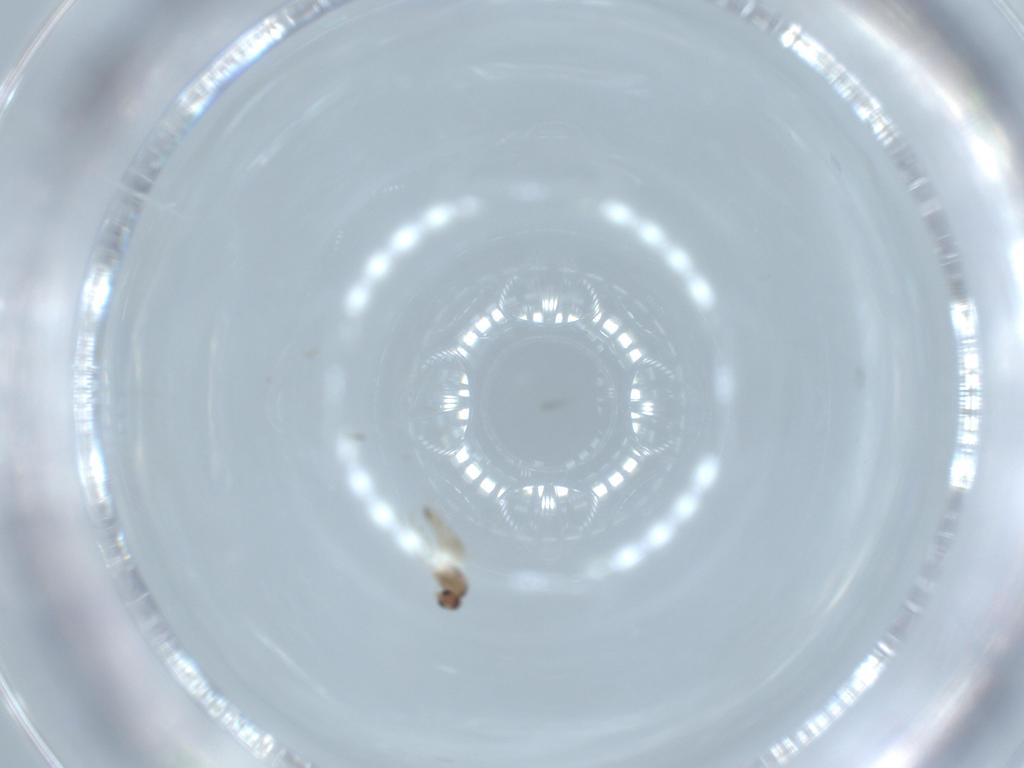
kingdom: Animalia
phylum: Arthropoda
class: Insecta
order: Diptera
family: Cecidomyiidae
